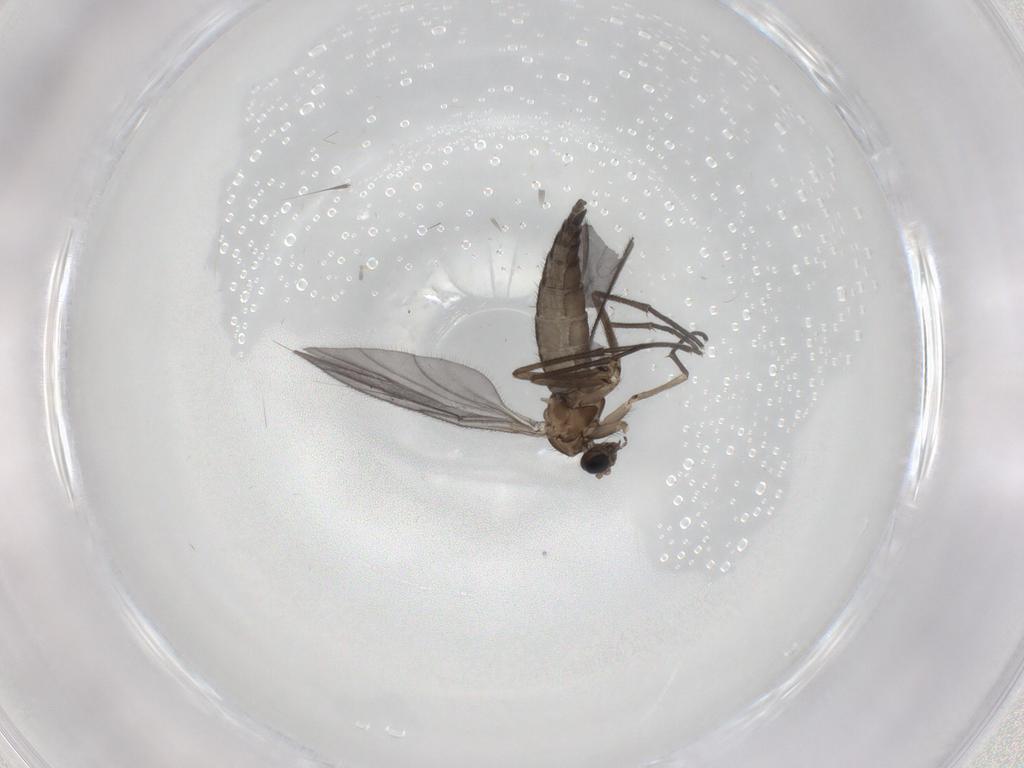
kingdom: Animalia
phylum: Arthropoda
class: Insecta
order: Diptera
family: Sciaridae
